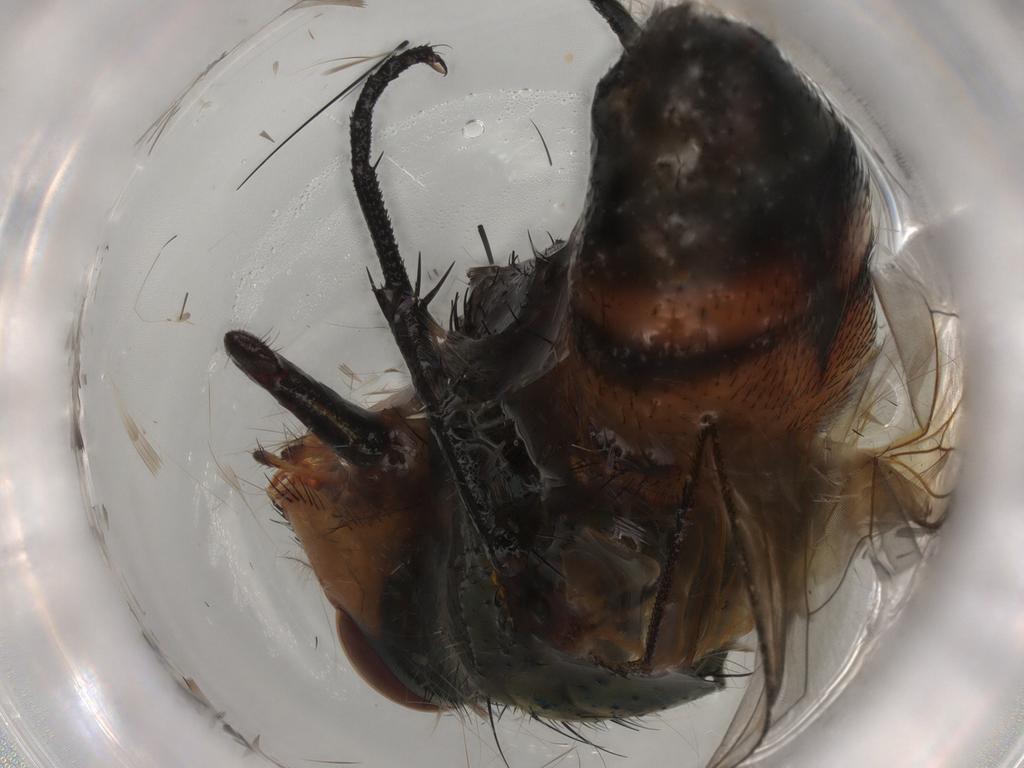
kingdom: Animalia
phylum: Arthropoda
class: Insecta
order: Diptera
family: Calliphoridae
